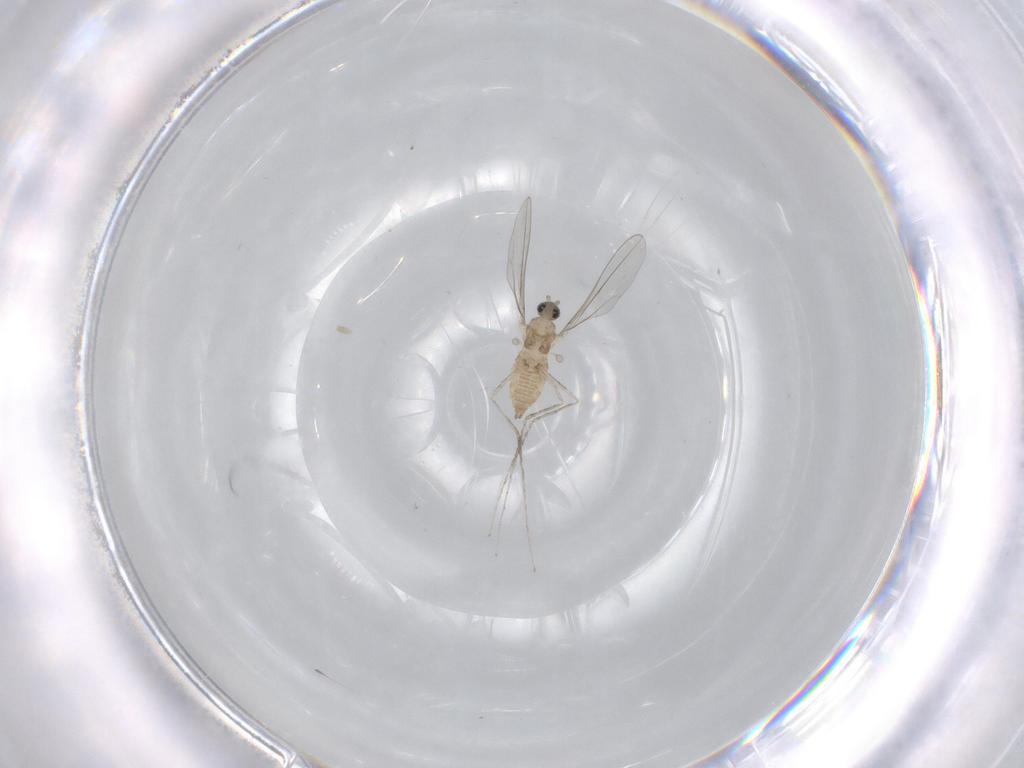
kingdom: Animalia
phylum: Arthropoda
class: Insecta
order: Diptera
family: Cecidomyiidae
